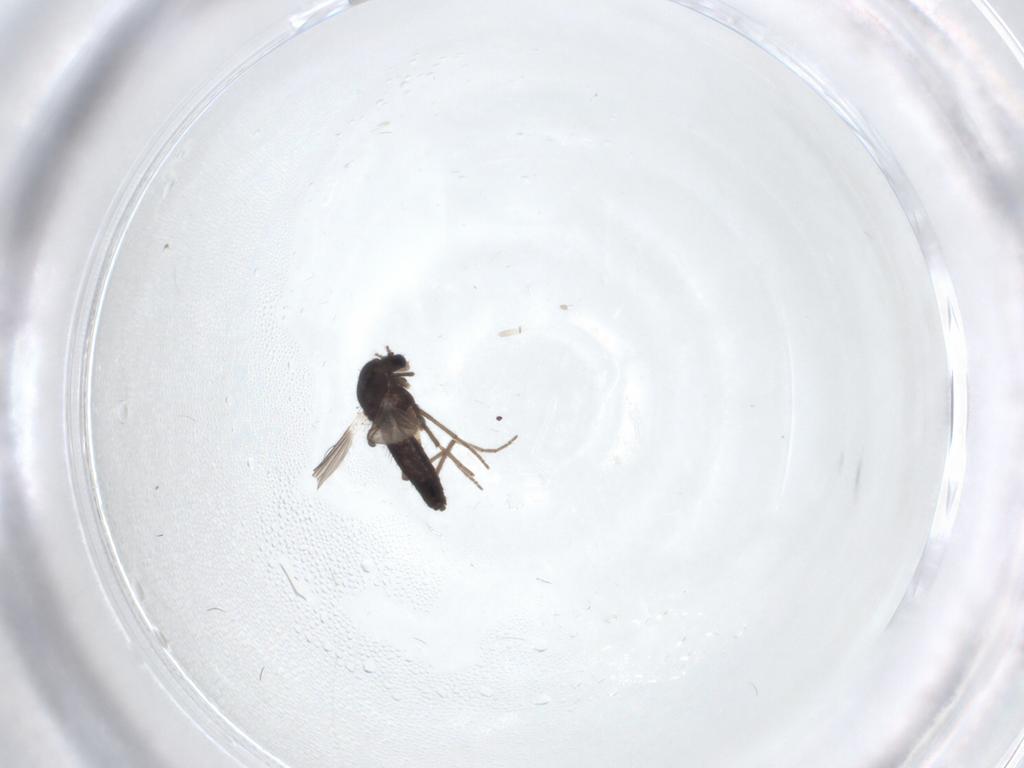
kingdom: Animalia
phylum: Arthropoda
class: Insecta
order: Diptera
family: Chironomidae
